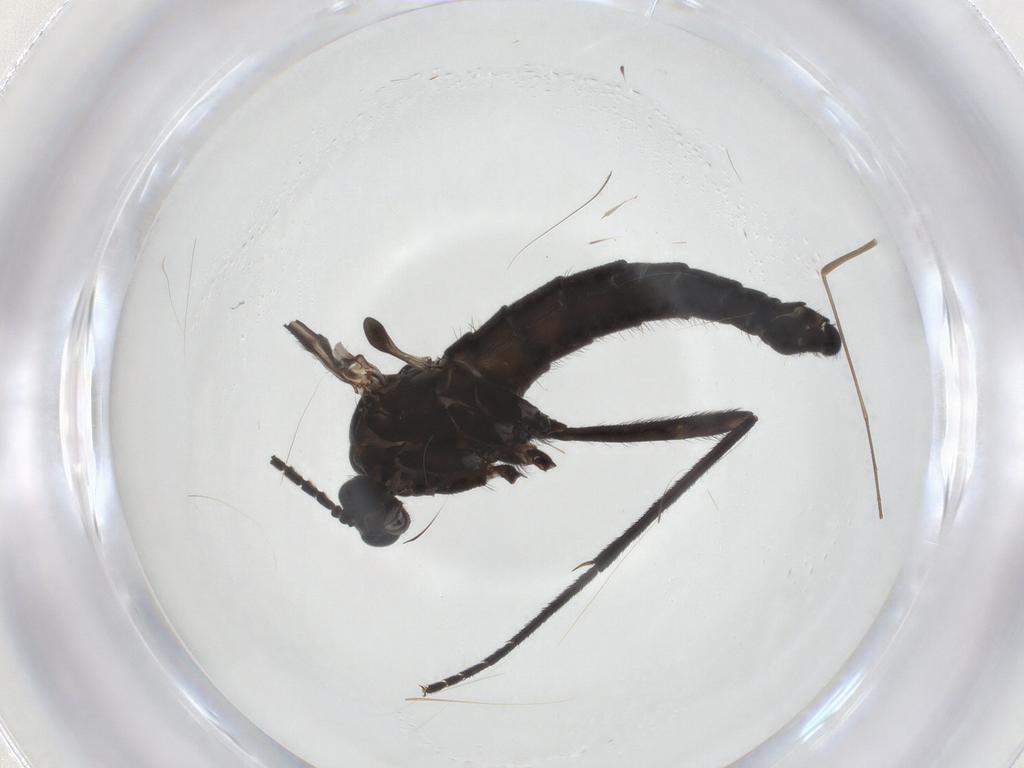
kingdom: Animalia
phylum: Arthropoda
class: Insecta
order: Diptera
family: Limoniidae
